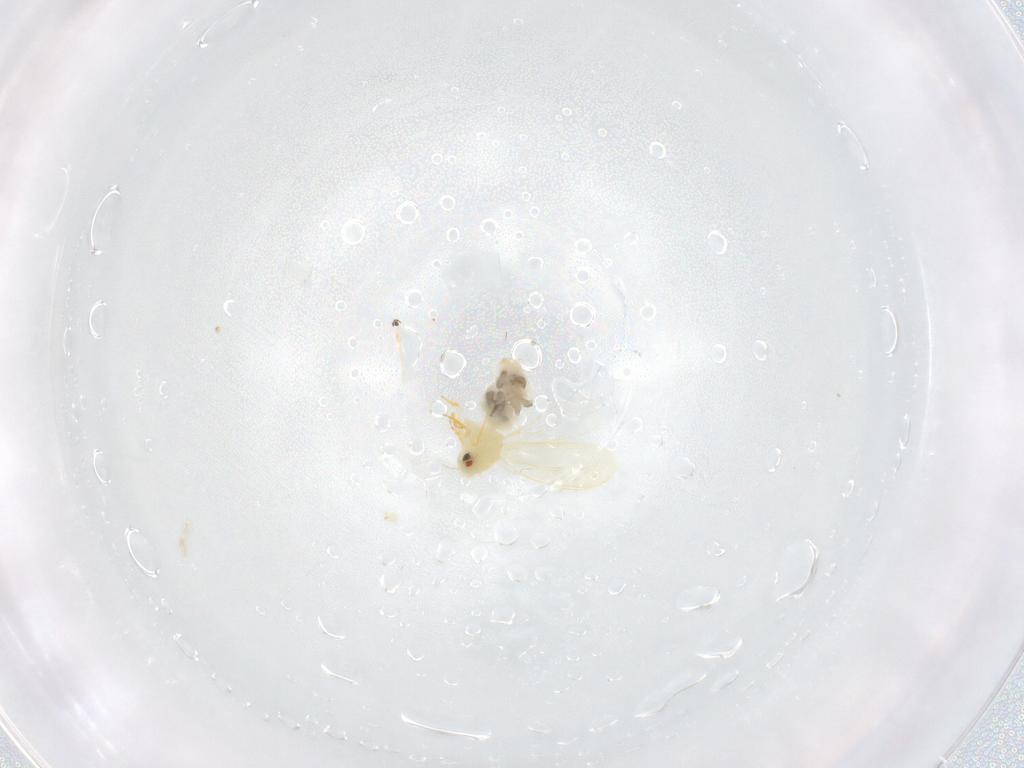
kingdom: Animalia
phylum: Arthropoda
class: Insecta
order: Hemiptera
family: Aleyrodidae
